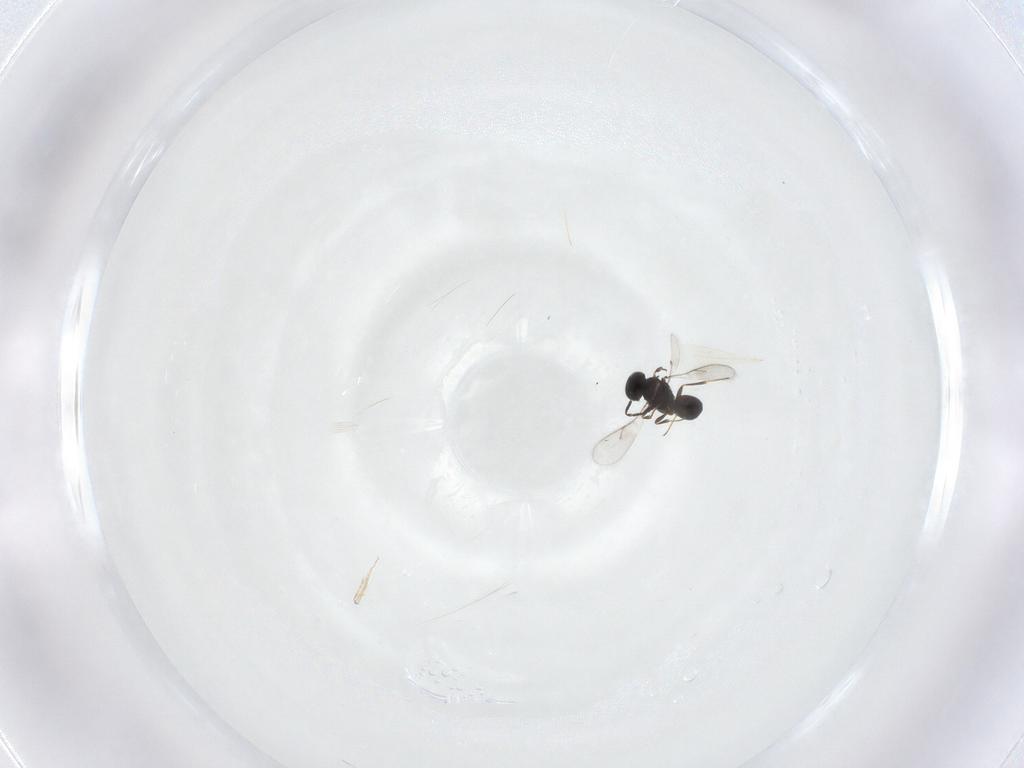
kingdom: Animalia
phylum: Arthropoda
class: Insecta
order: Hymenoptera
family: Scelionidae
